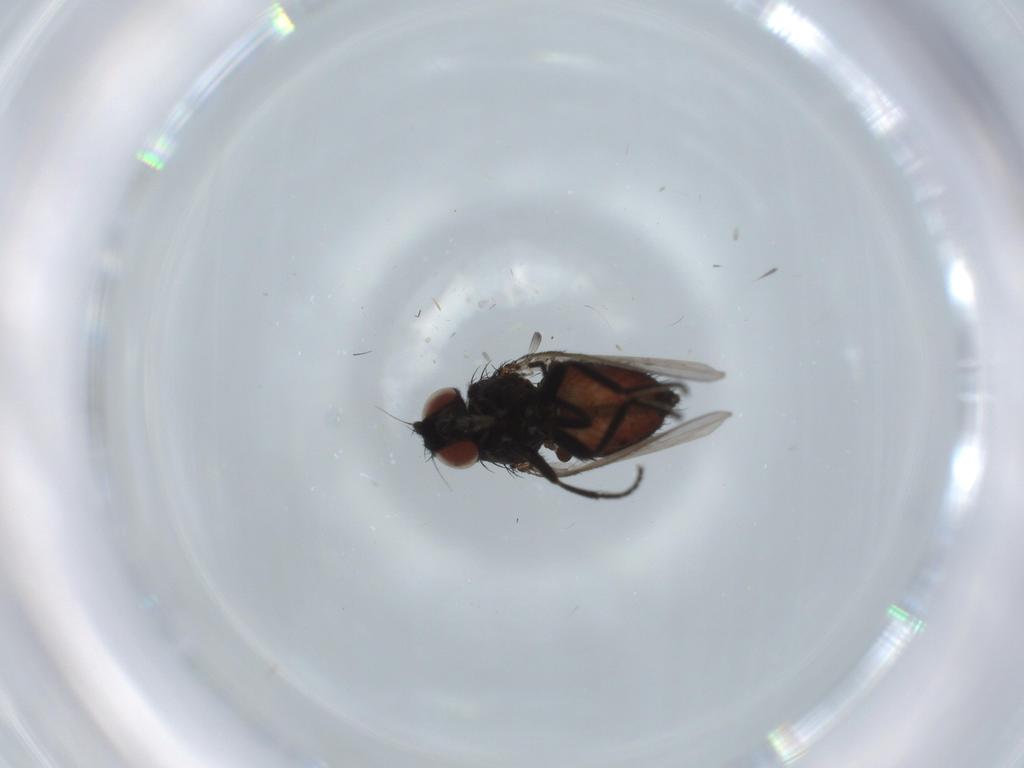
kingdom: Animalia
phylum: Arthropoda
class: Insecta
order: Diptera
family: Milichiidae
